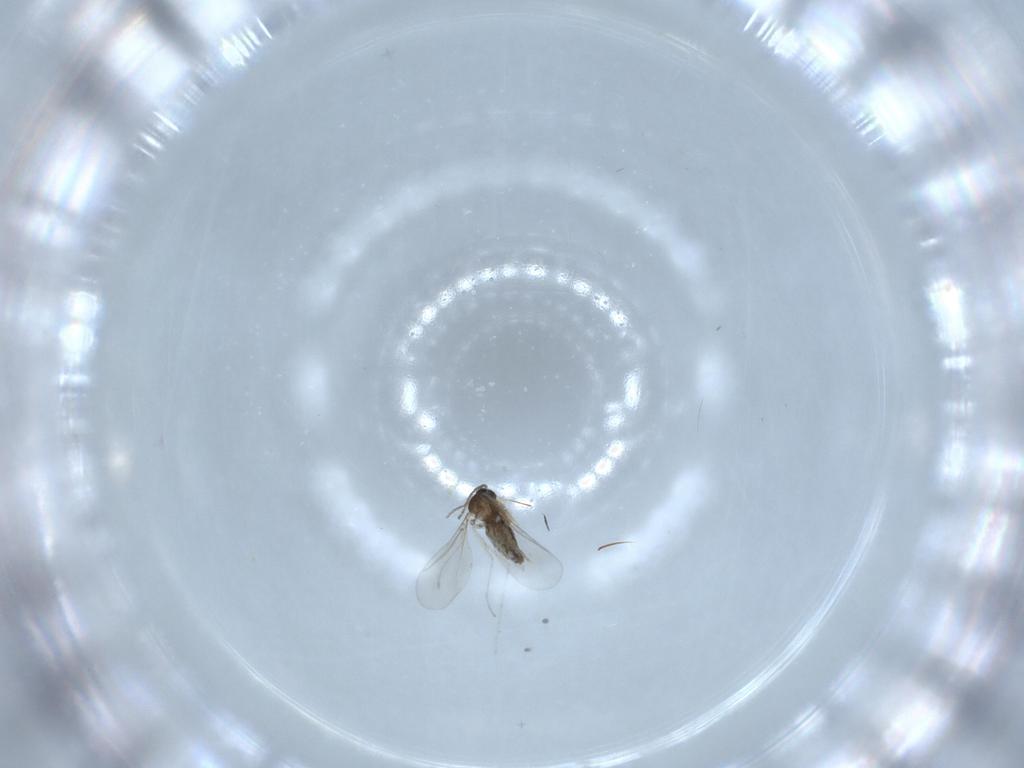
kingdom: Animalia
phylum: Arthropoda
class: Insecta
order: Diptera
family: Cecidomyiidae
